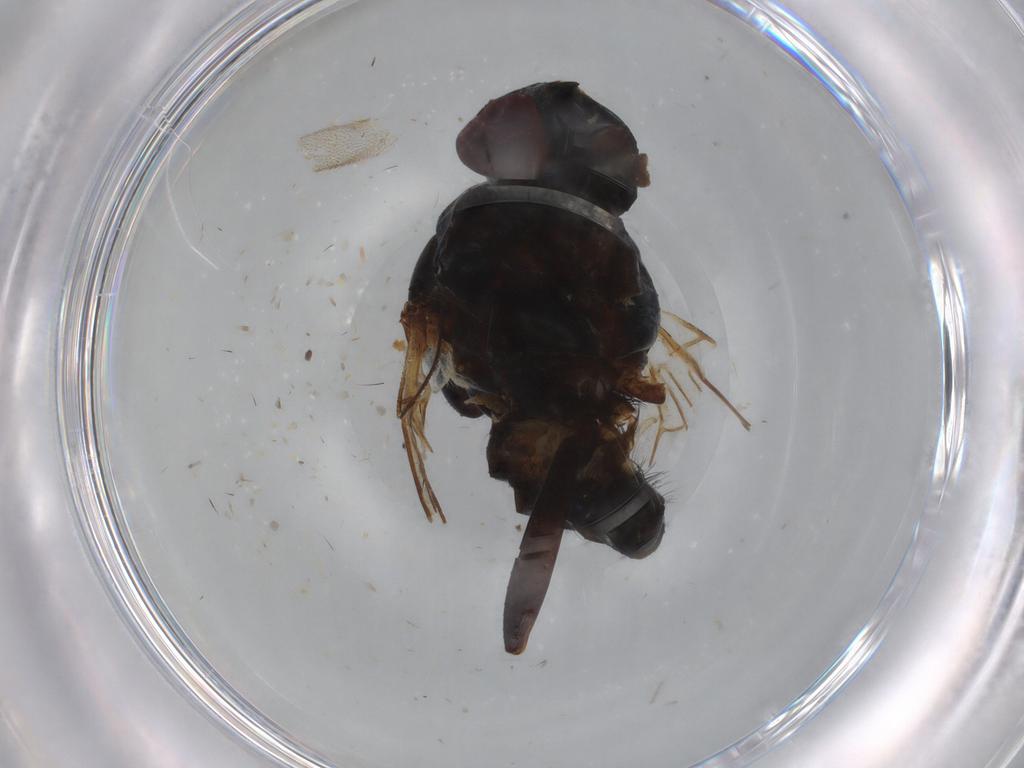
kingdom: Animalia
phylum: Arthropoda
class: Insecta
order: Diptera
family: Anthomyiidae
